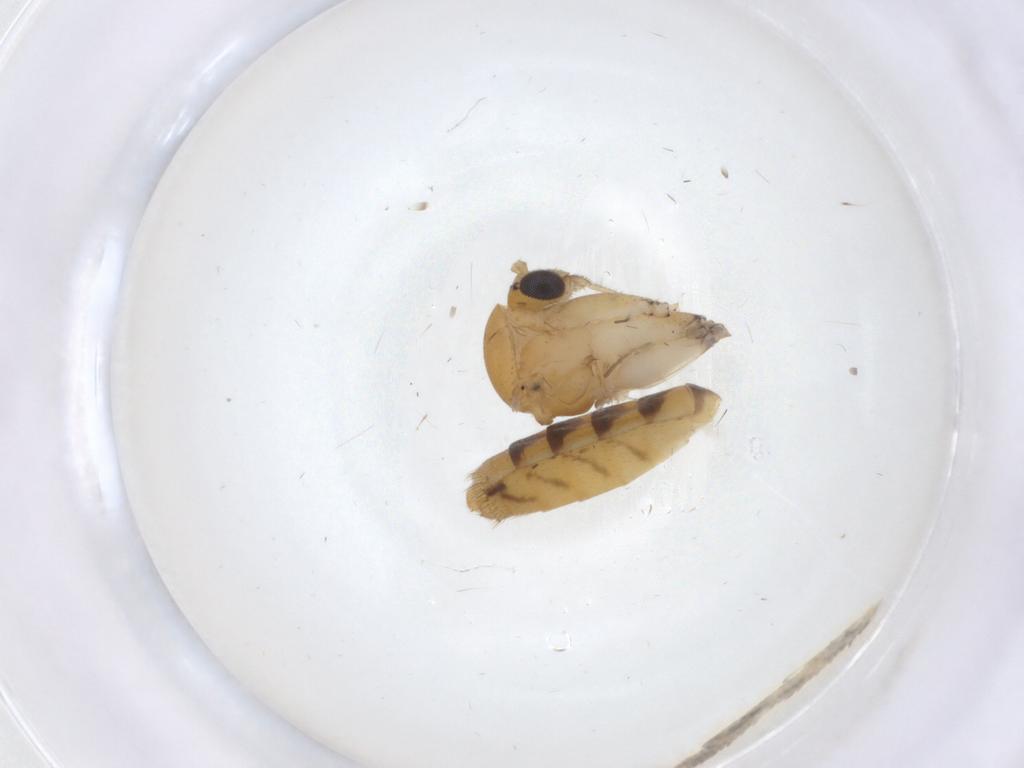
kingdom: Animalia
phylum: Arthropoda
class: Insecta
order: Diptera
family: Mycetophilidae
